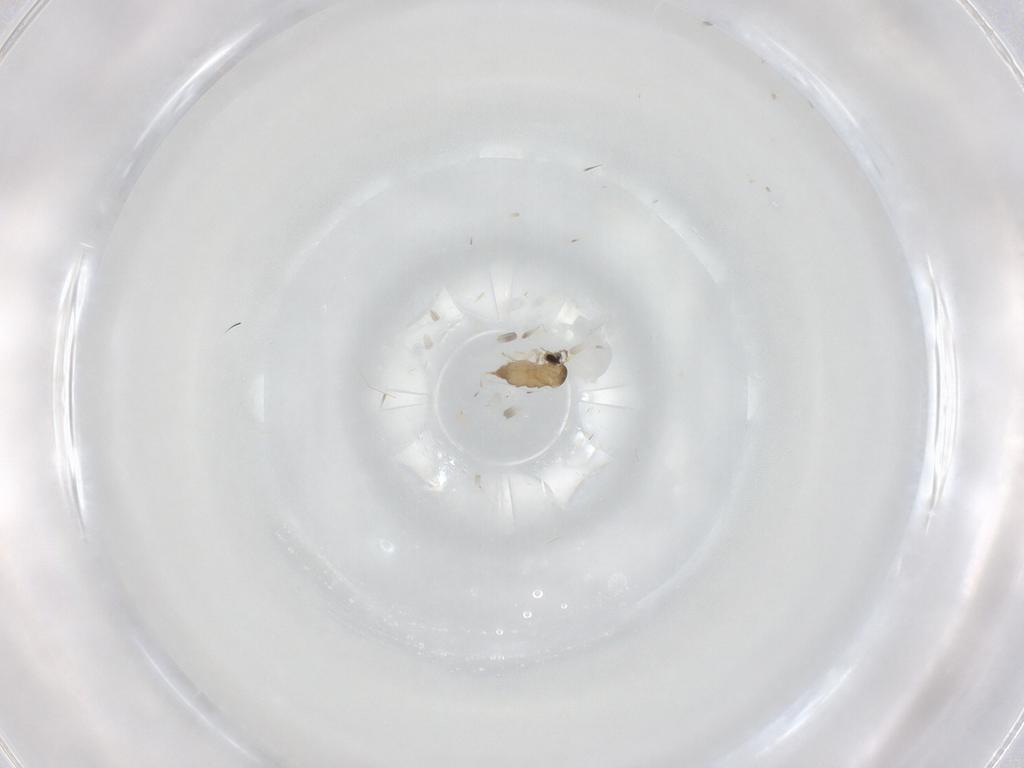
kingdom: Animalia
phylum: Arthropoda
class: Insecta
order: Diptera
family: Cecidomyiidae
